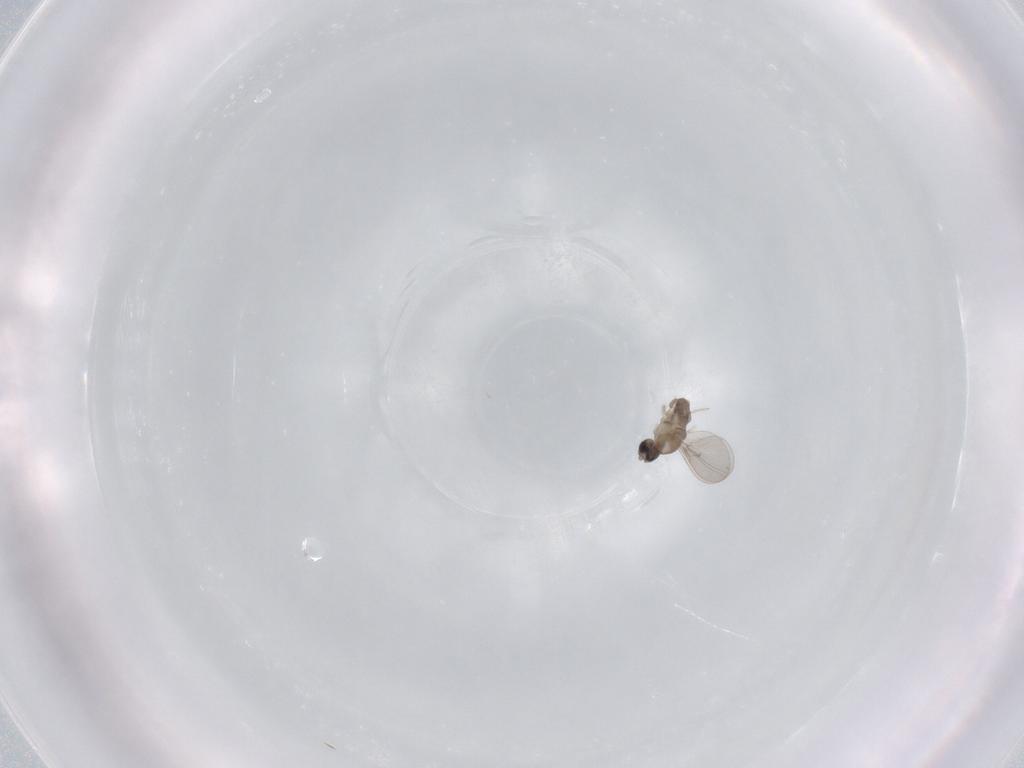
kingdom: Animalia
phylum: Arthropoda
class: Insecta
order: Diptera
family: Cecidomyiidae
